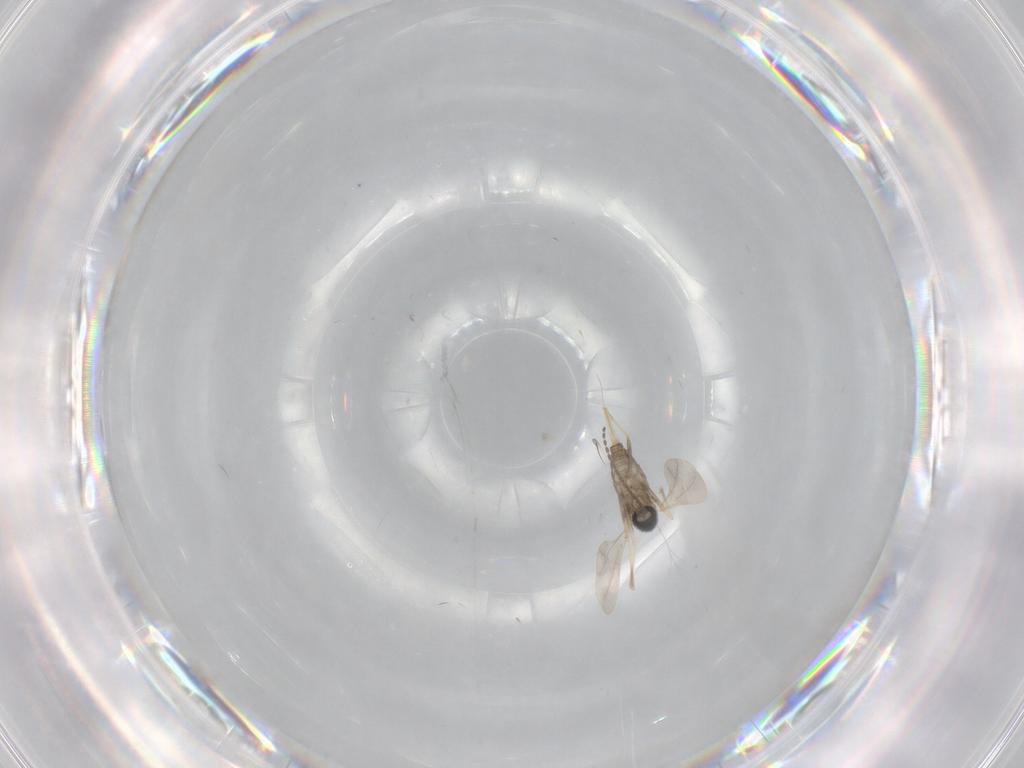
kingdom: Animalia
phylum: Arthropoda
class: Insecta
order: Diptera
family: Cecidomyiidae
